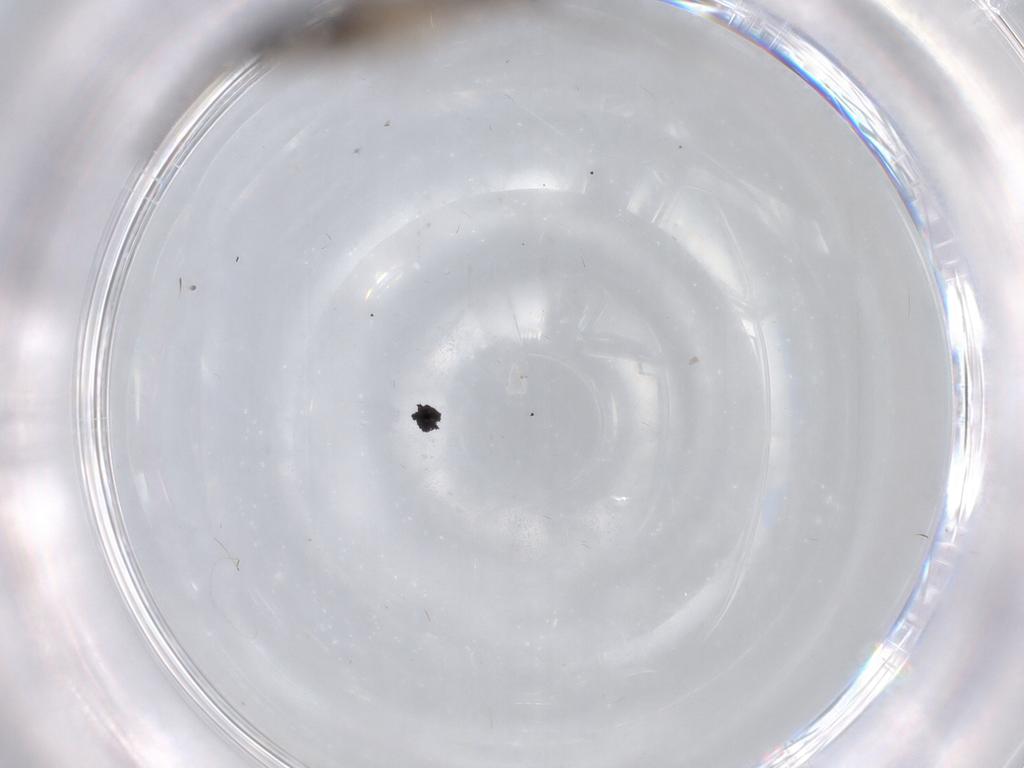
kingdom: Animalia
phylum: Arthropoda
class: Insecta
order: Diptera
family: Sciaridae
